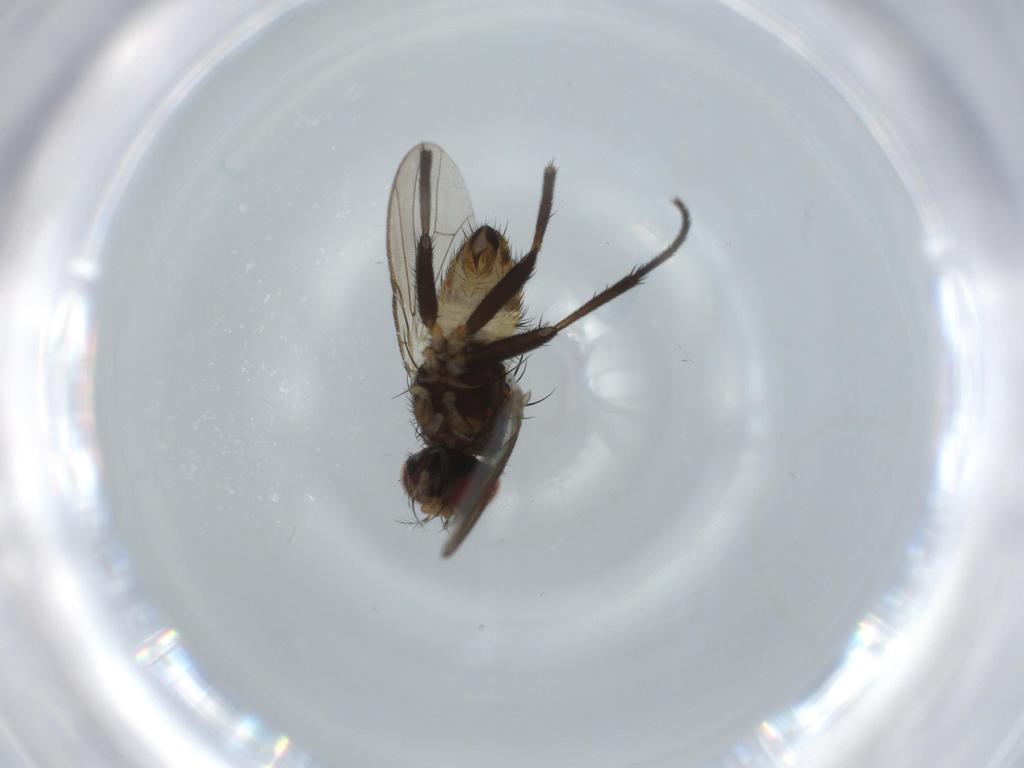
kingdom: Animalia
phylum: Arthropoda
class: Insecta
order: Diptera
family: Anthomyiidae
